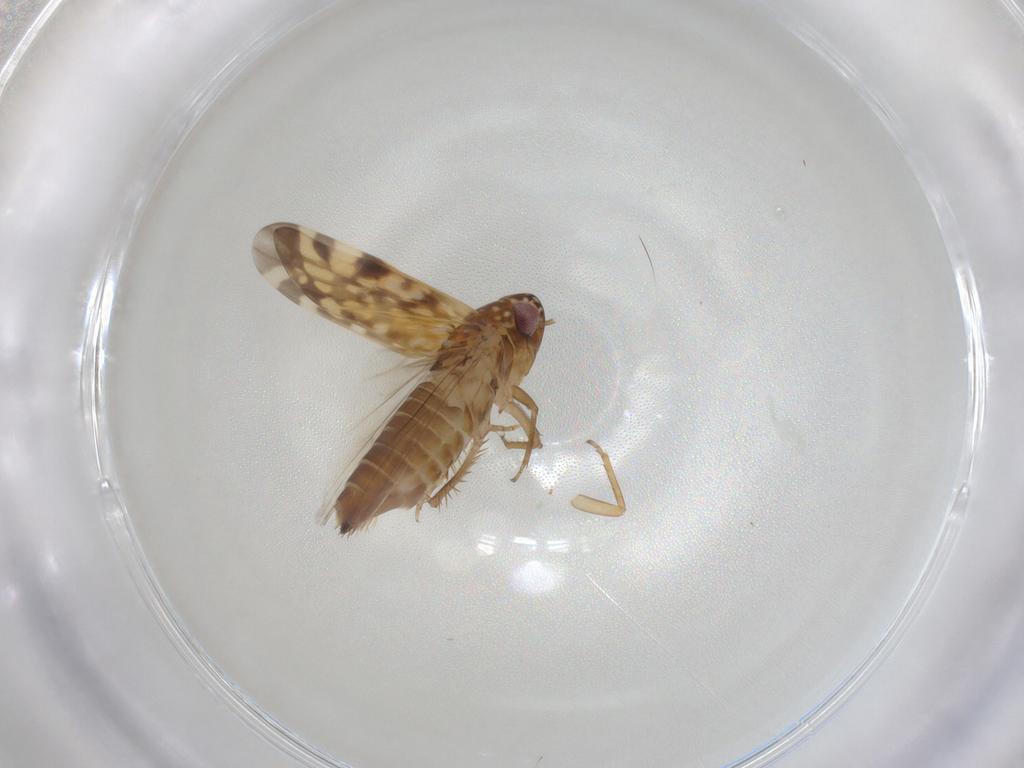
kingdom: Animalia
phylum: Arthropoda
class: Insecta
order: Hemiptera
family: Cicadellidae
